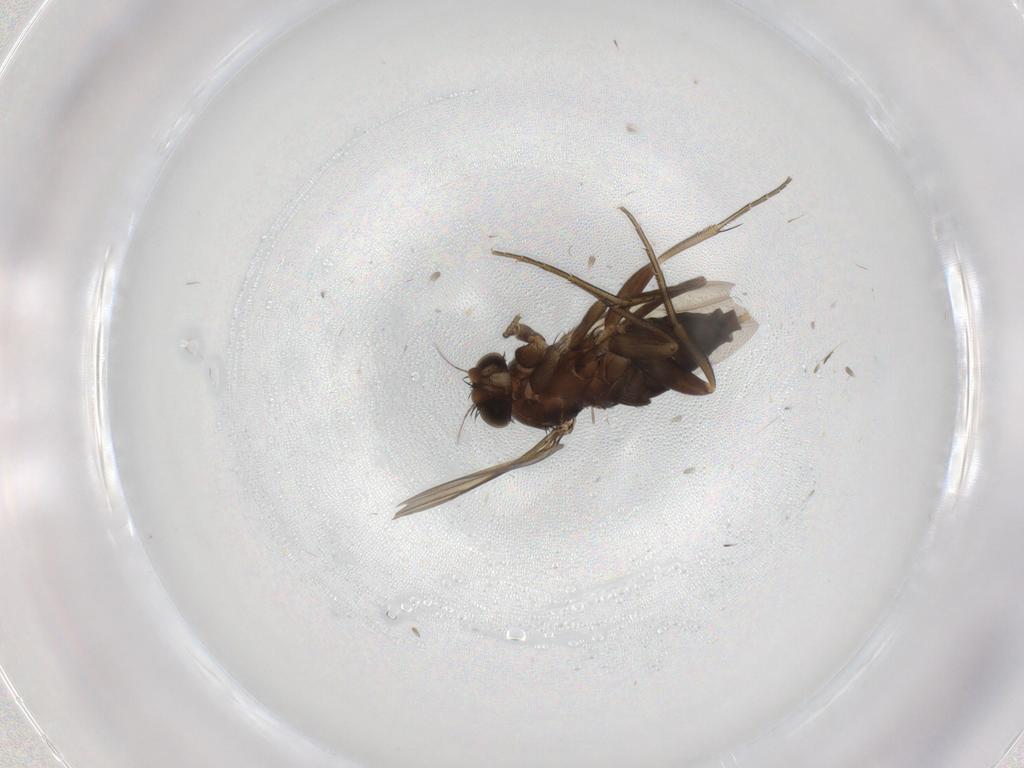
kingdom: Animalia
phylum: Arthropoda
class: Insecta
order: Diptera
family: Phoridae
